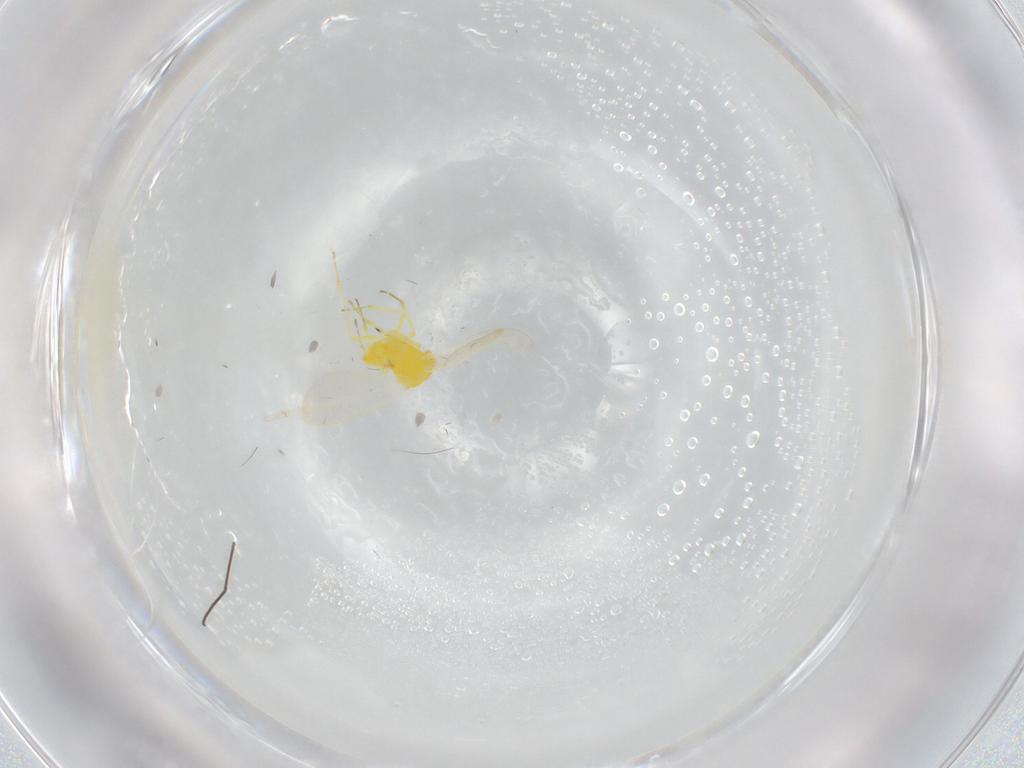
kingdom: Animalia
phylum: Arthropoda
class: Insecta
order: Hemiptera
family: Aleyrodidae
